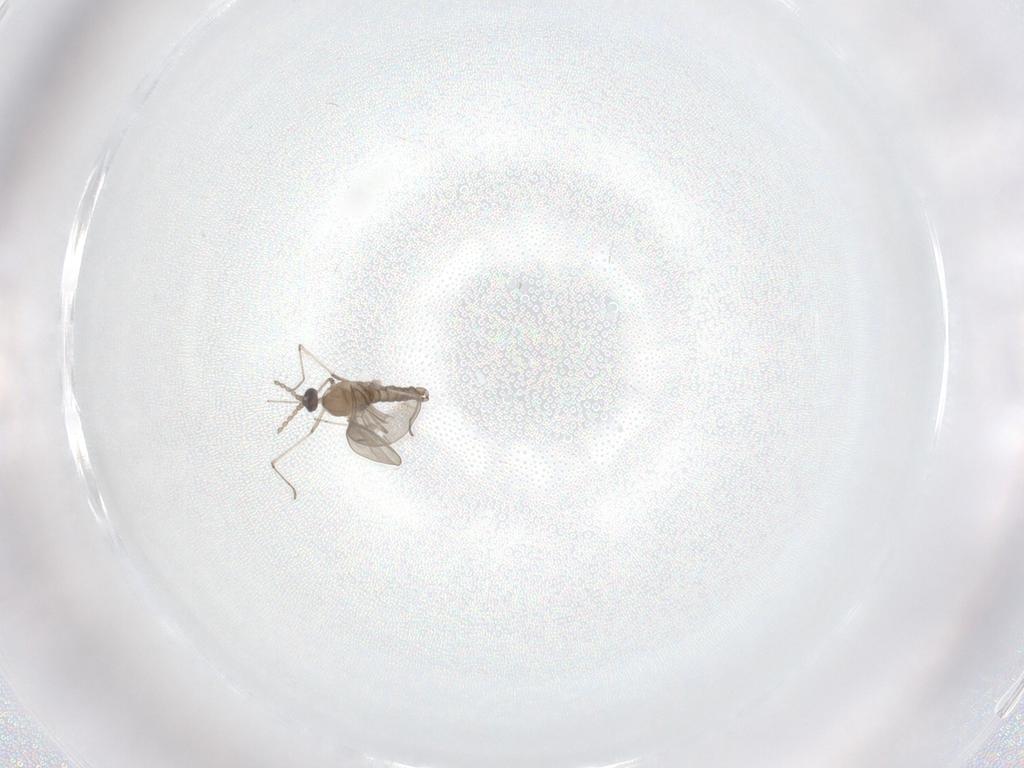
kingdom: Animalia
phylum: Arthropoda
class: Insecta
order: Diptera
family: Cecidomyiidae
